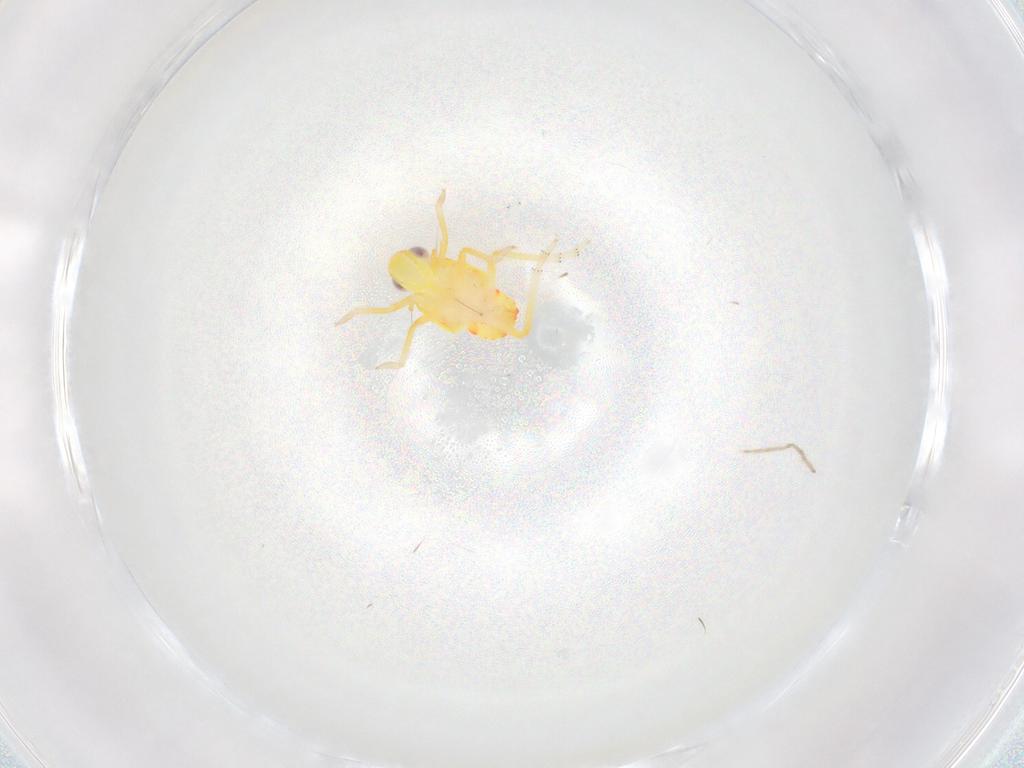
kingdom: Animalia
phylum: Arthropoda
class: Insecta
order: Hemiptera
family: Tropiduchidae
